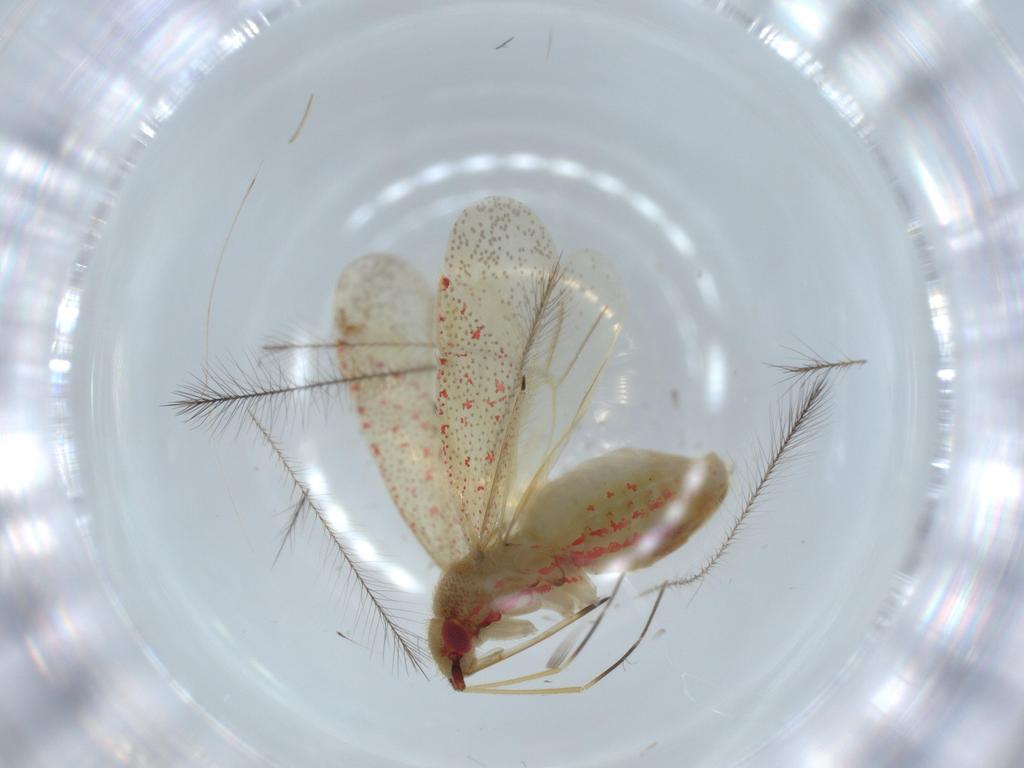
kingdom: Animalia
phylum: Arthropoda
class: Insecta
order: Hemiptera
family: Miridae
